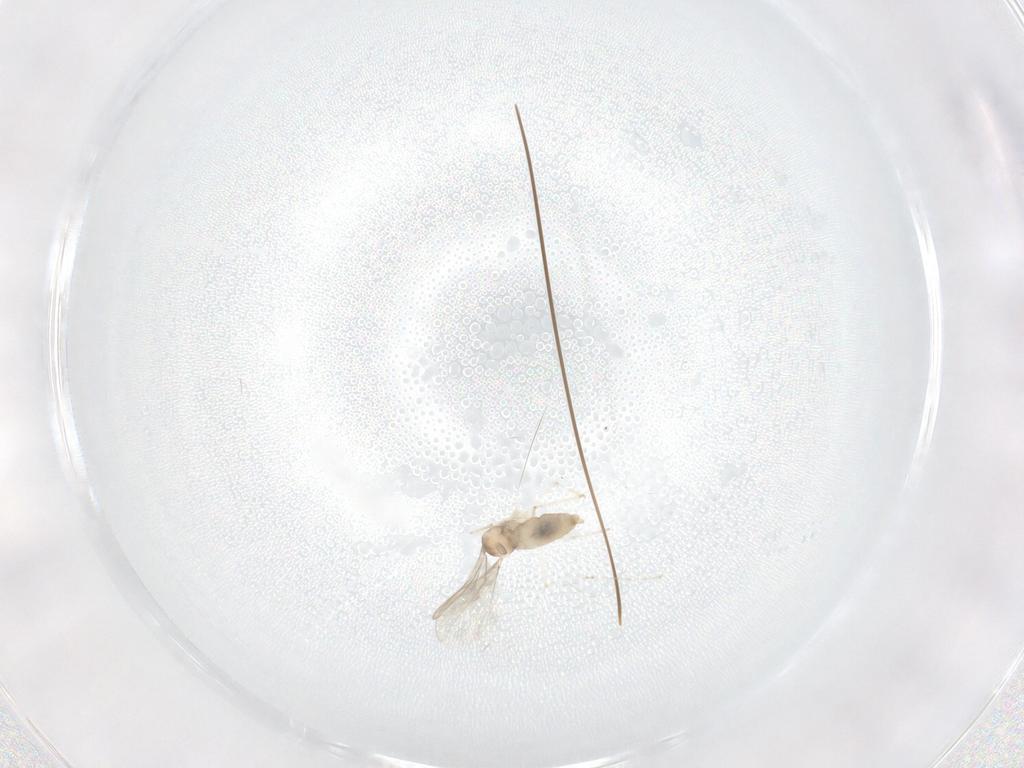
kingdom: Animalia
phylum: Arthropoda
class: Insecta
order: Diptera
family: Cecidomyiidae
